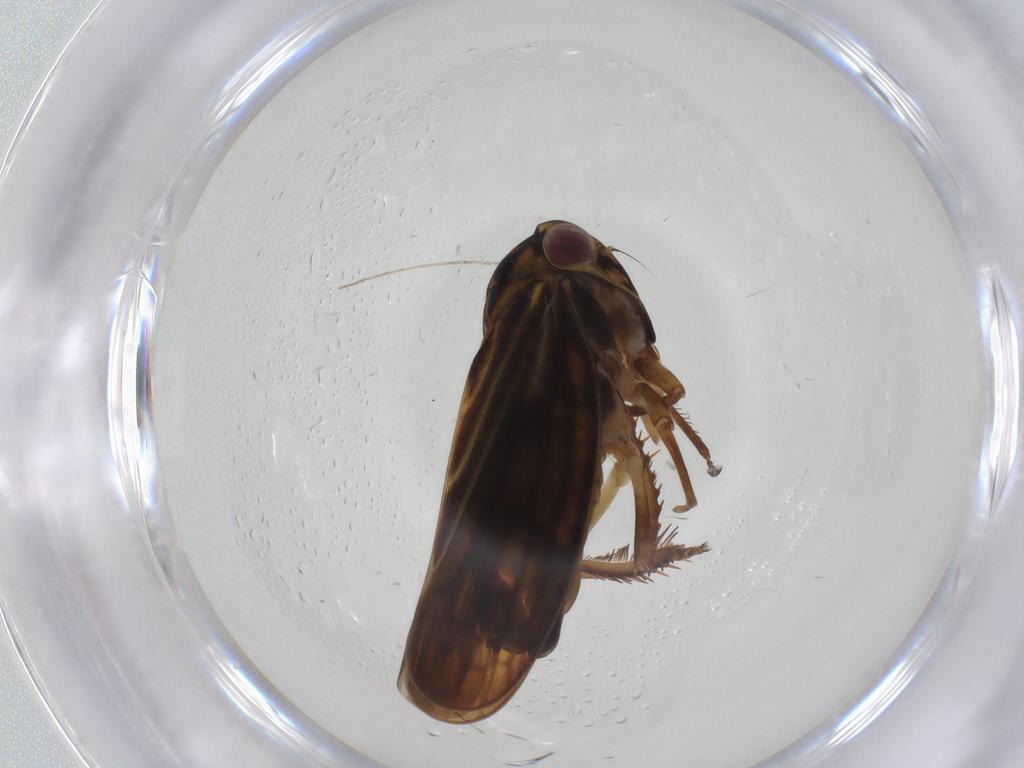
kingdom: Animalia
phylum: Arthropoda
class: Insecta
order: Hemiptera
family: Cicadellidae
